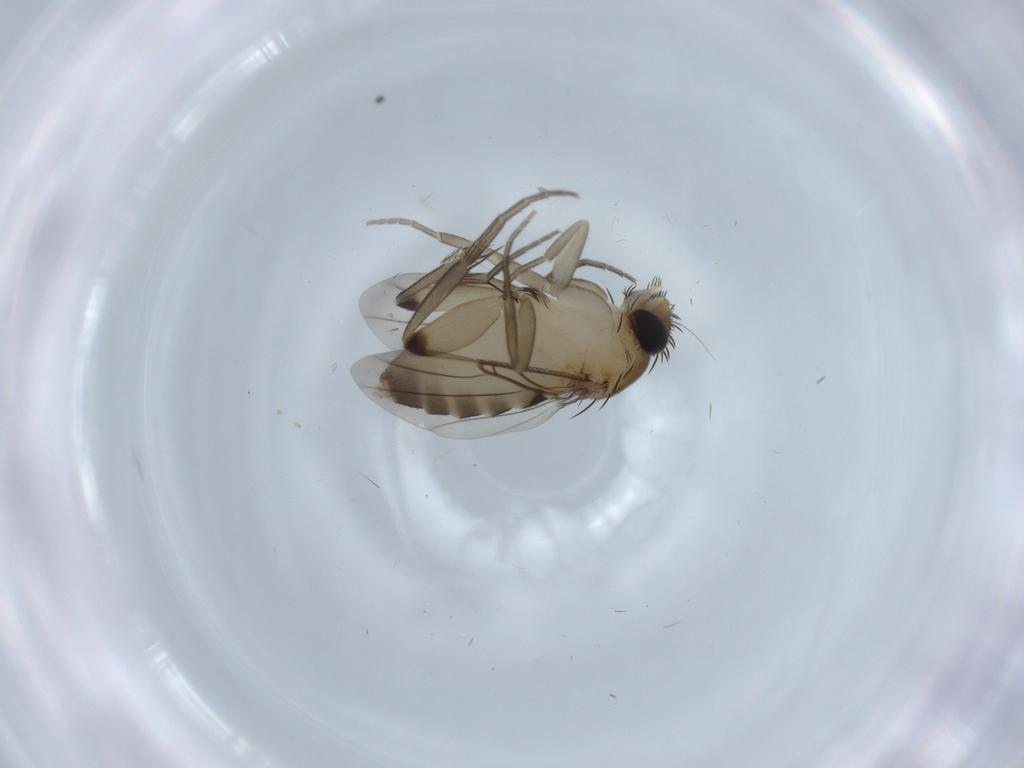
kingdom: Animalia
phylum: Arthropoda
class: Insecta
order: Diptera
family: Phoridae
